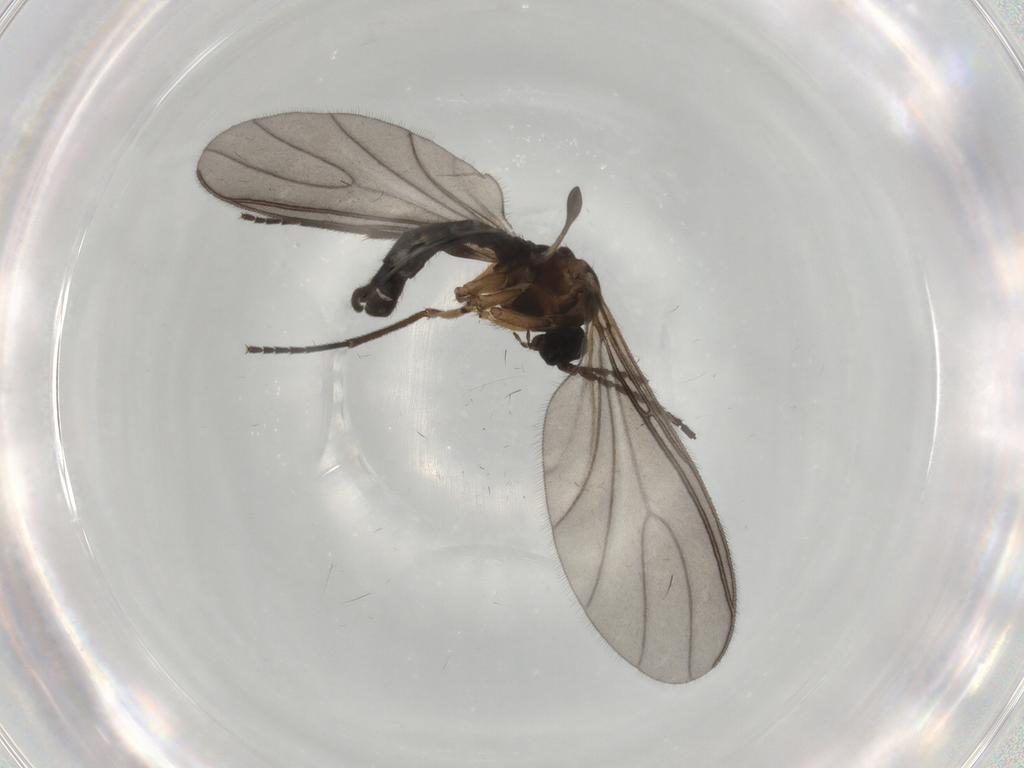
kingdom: Animalia
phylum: Arthropoda
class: Insecta
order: Diptera
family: Sciaridae
